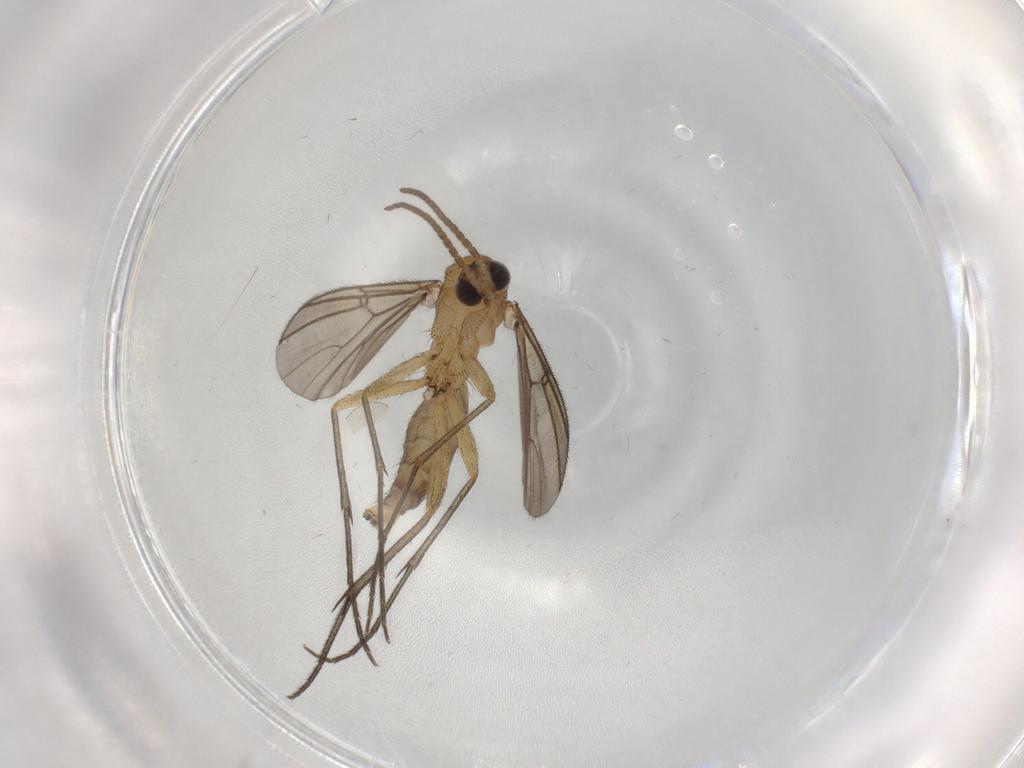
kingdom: Animalia
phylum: Arthropoda
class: Insecta
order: Diptera
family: Mycetophilidae
